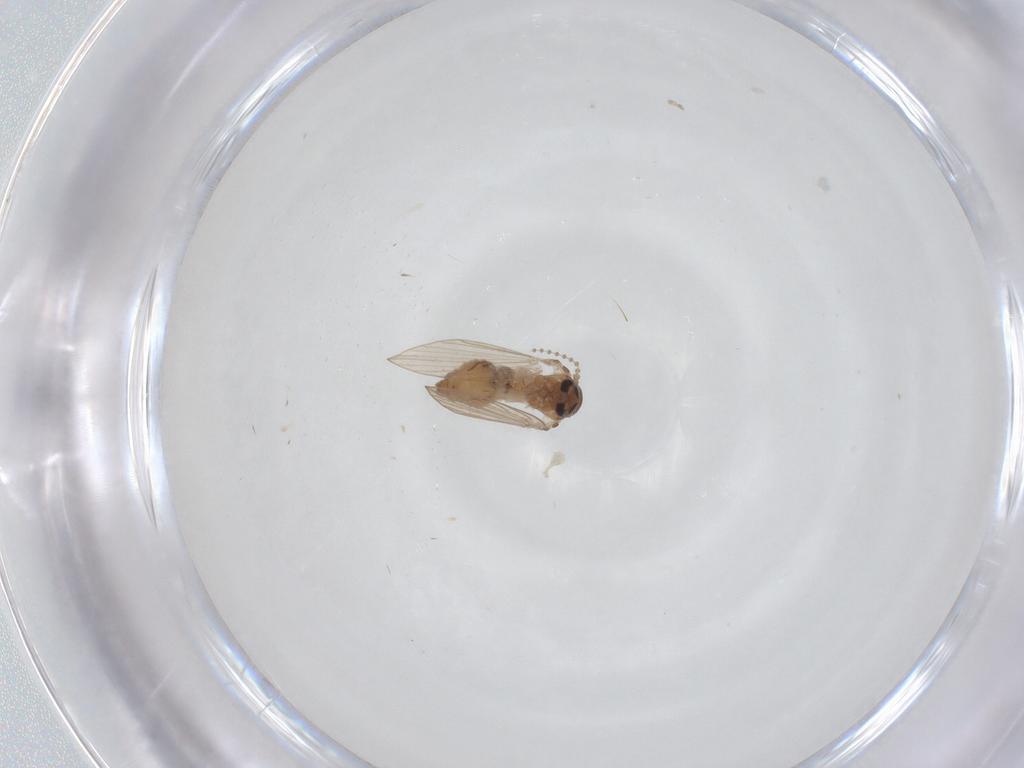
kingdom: Animalia
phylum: Arthropoda
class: Insecta
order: Diptera
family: Psychodidae
